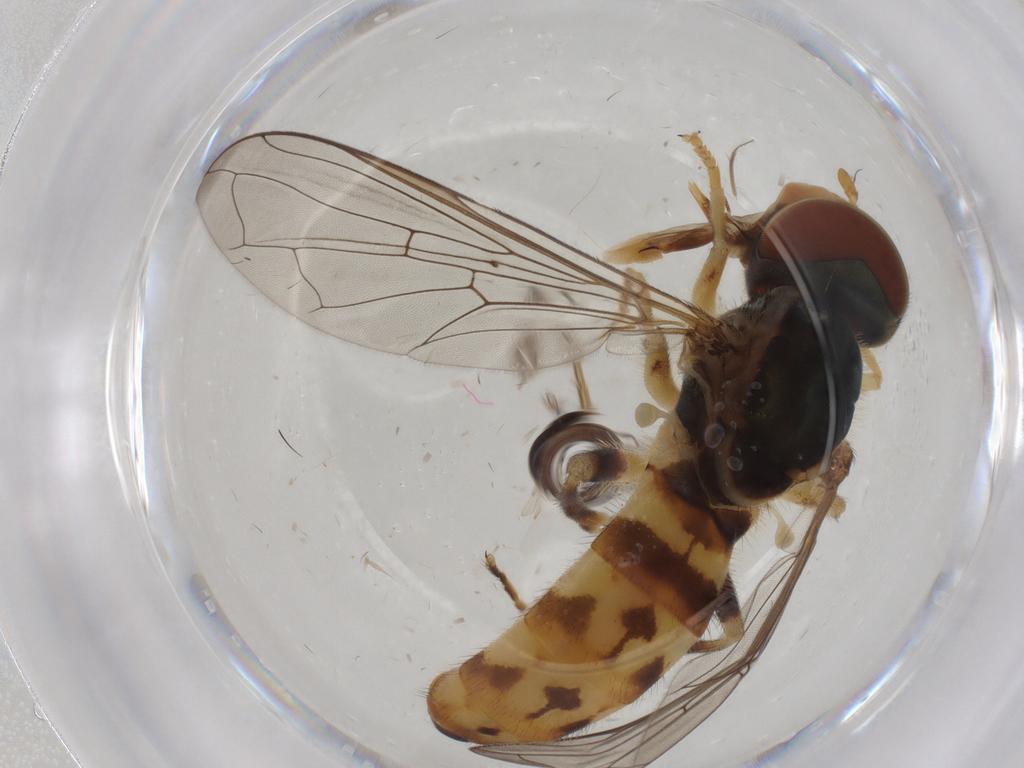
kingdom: Animalia
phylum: Arthropoda
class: Insecta
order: Diptera
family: Syrphidae
